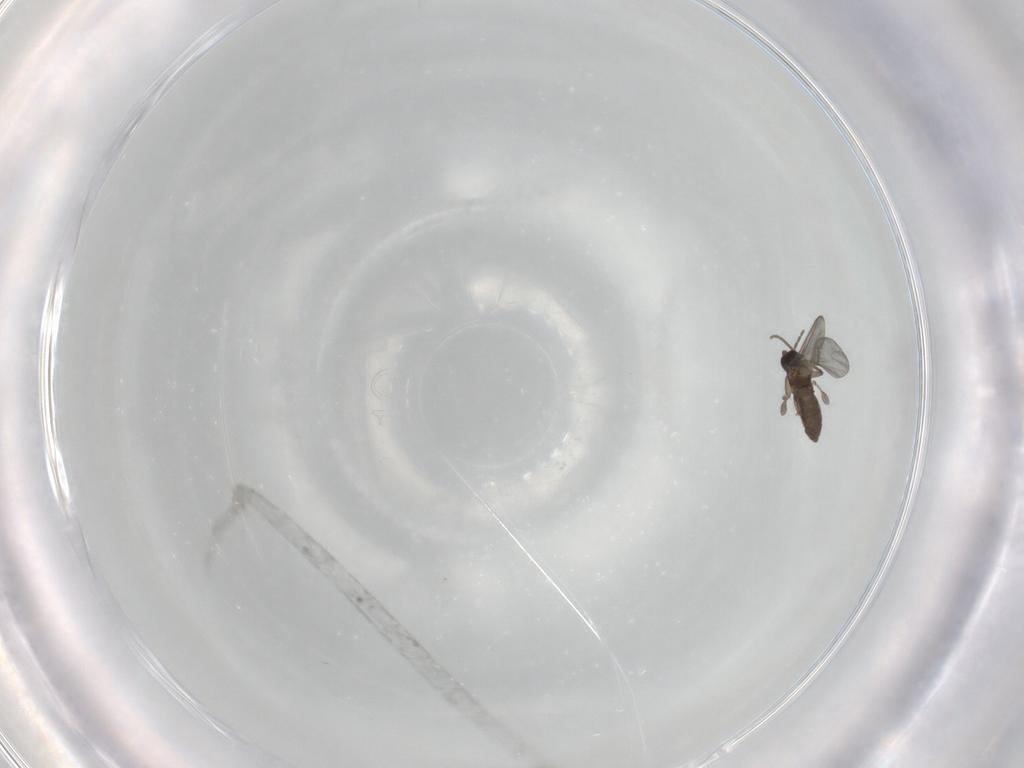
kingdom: Animalia
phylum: Arthropoda
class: Insecta
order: Diptera
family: Sciaridae
